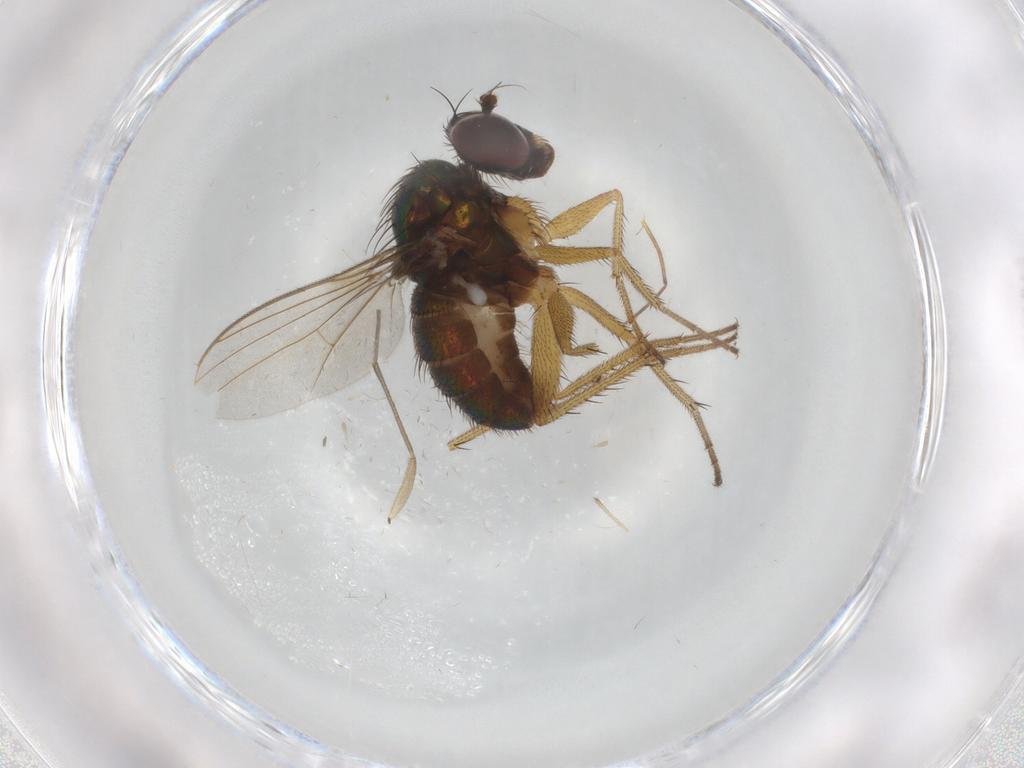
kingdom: Animalia
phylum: Arthropoda
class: Insecta
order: Diptera
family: Dolichopodidae
